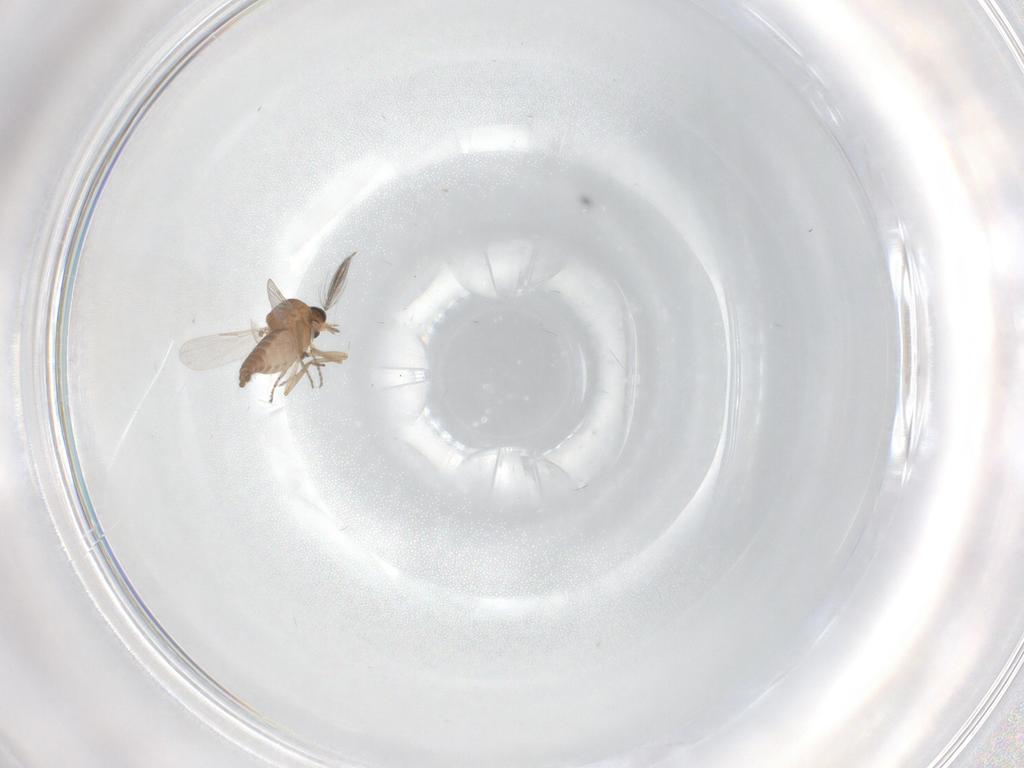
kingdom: Animalia
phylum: Arthropoda
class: Insecta
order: Diptera
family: Ceratopogonidae
